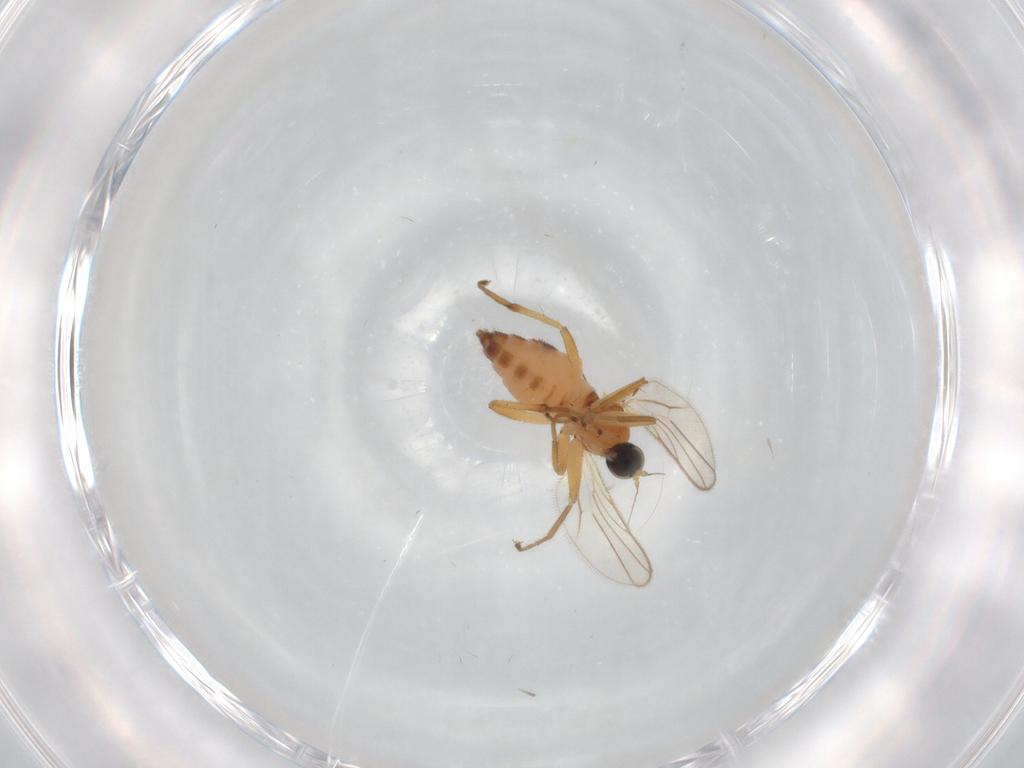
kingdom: Animalia
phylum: Arthropoda
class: Insecta
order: Diptera
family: Hybotidae
